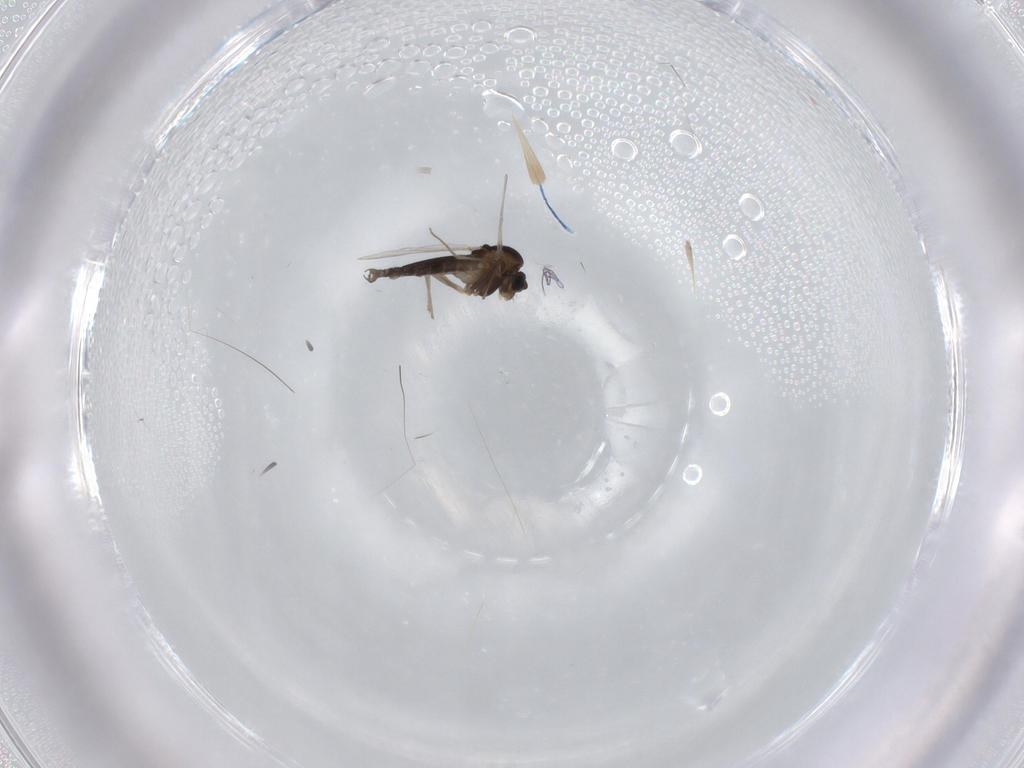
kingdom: Animalia
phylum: Arthropoda
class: Insecta
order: Diptera
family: Chironomidae
